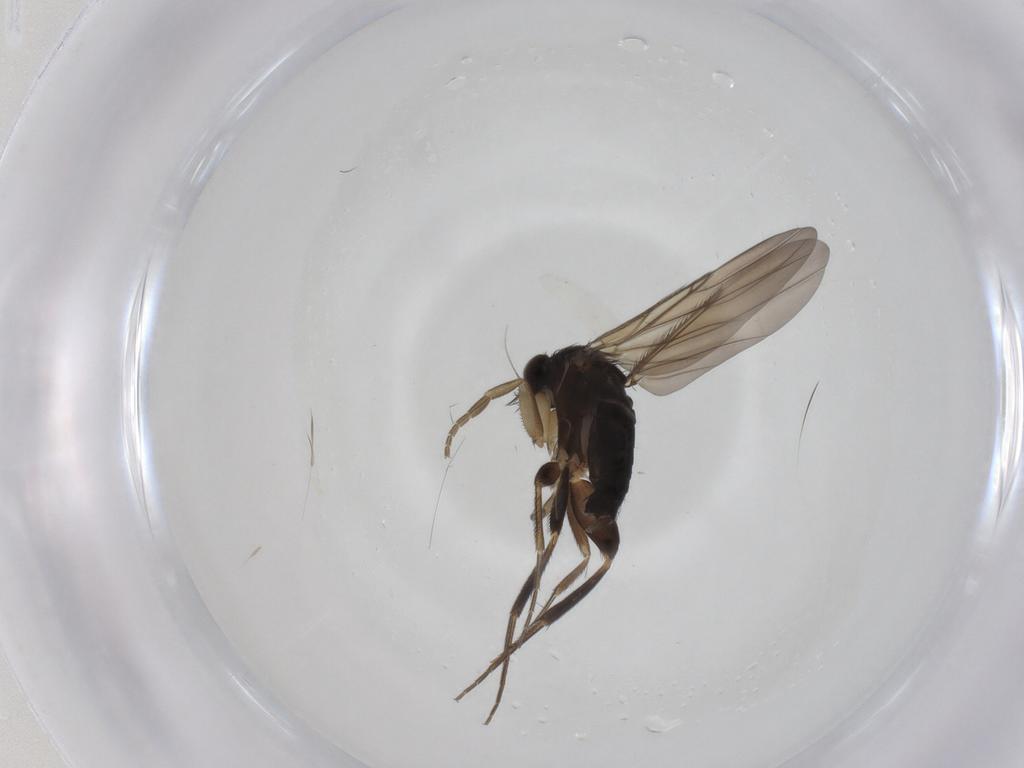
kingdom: Animalia
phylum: Arthropoda
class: Insecta
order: Diptera
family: Phoridae
